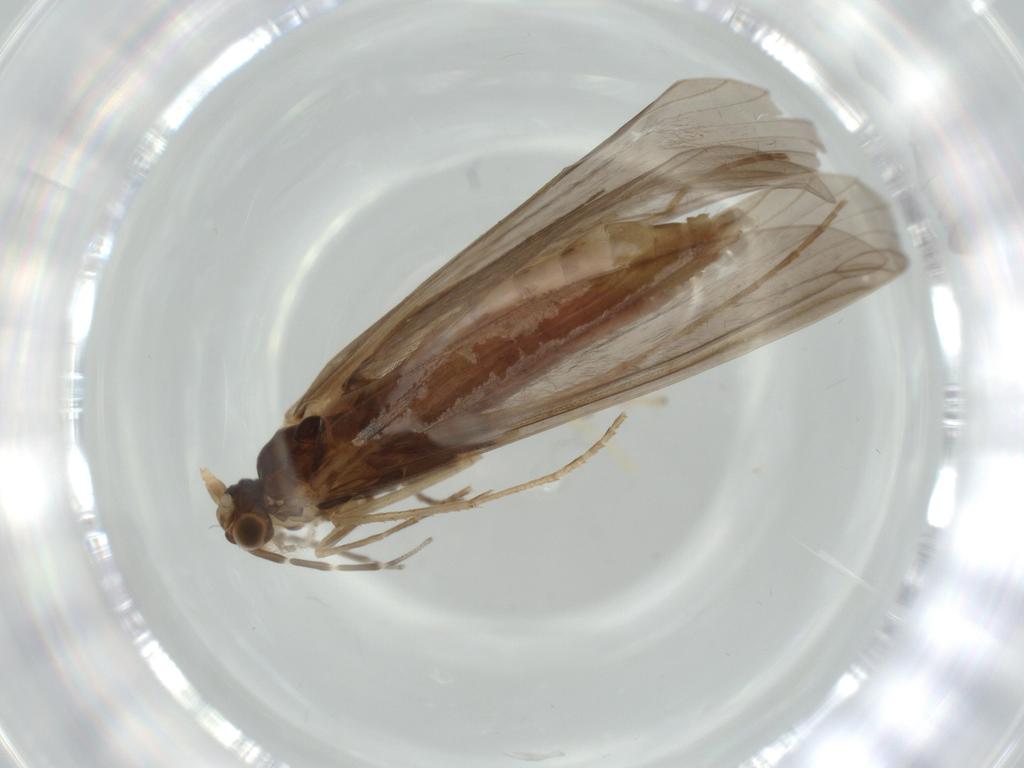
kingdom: Animalia
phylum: Arthropoda
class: Insecta
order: Trichoptera
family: Leptoceridae
